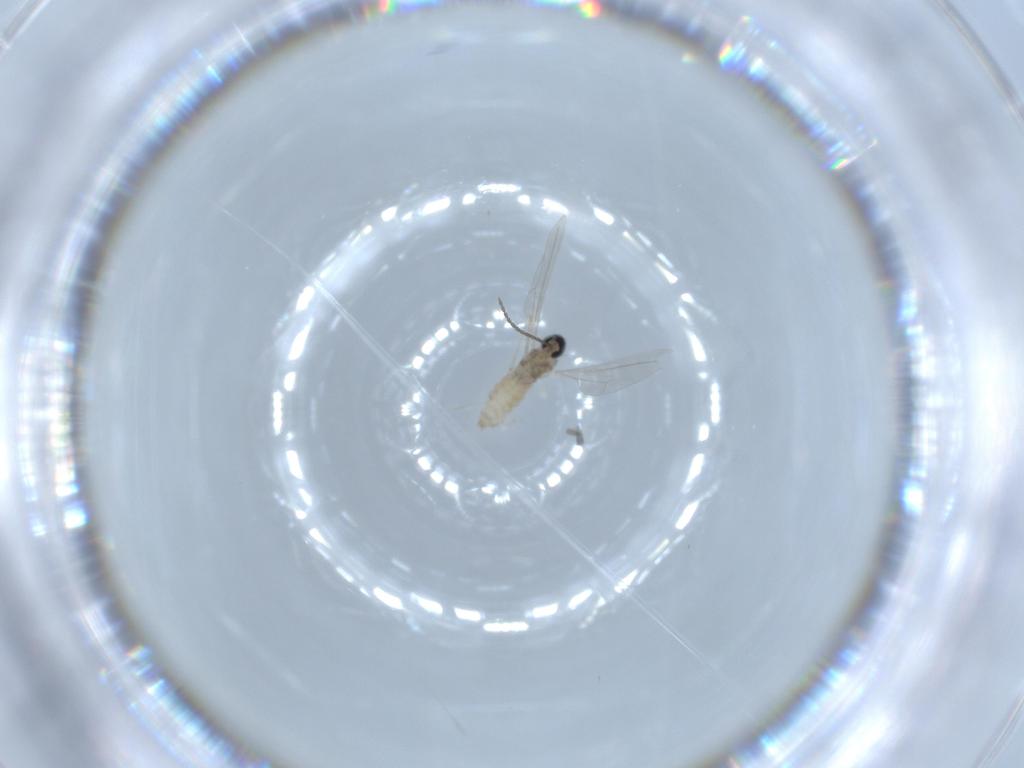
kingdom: Animalia
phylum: Arthropoda
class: Insecta
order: Diptera
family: Cecidomyiidae
